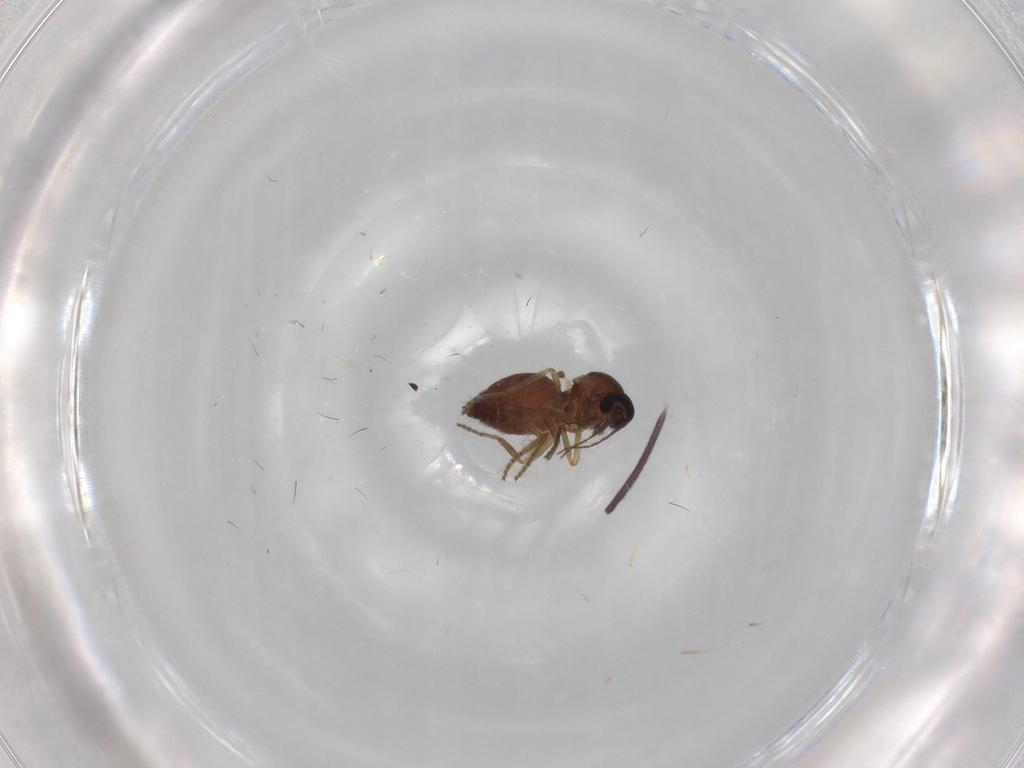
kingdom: Animalia
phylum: Arthropoda
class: Insecta
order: Diptera
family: Ceratopogonidae
